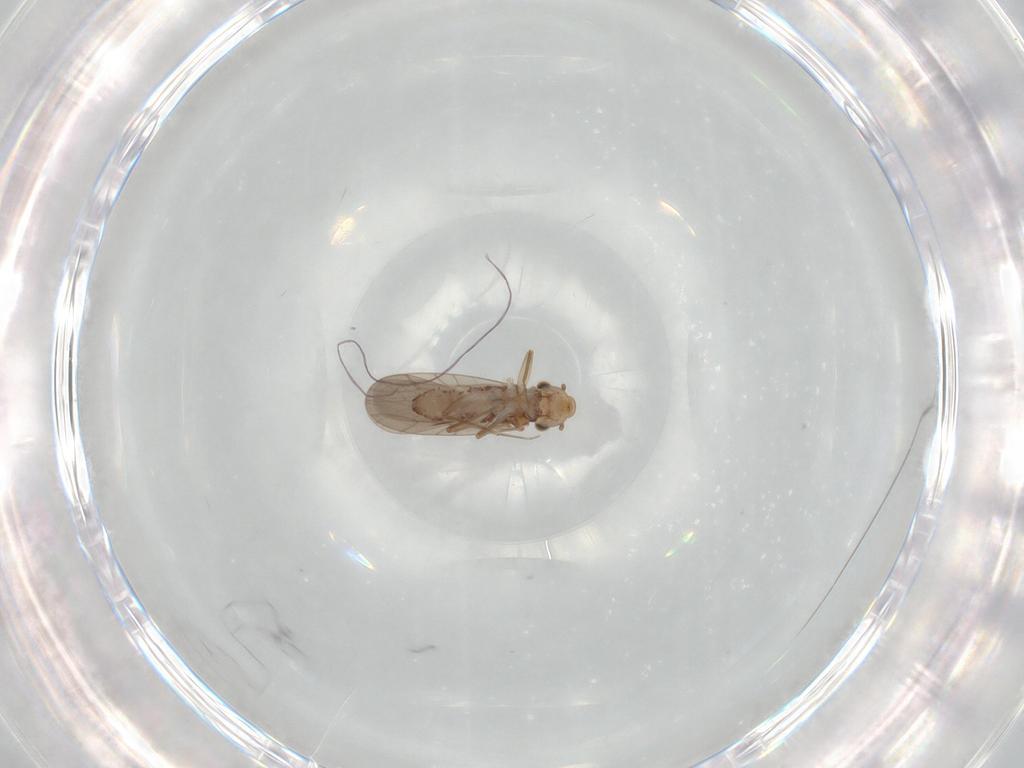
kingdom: Animalia
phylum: Arthropoda
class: Insecta
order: Psocodea
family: Lepidopsocidae
